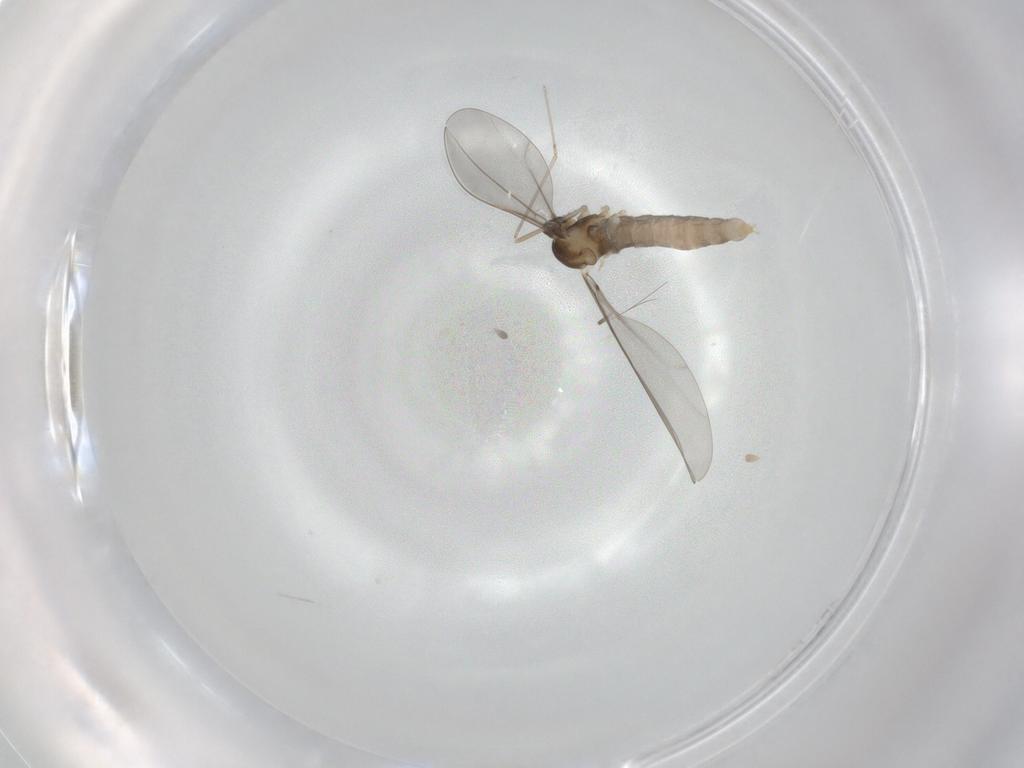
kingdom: Animalia
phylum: Arthropoda
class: Insecta
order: Diptera
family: Cecidomyiidae
